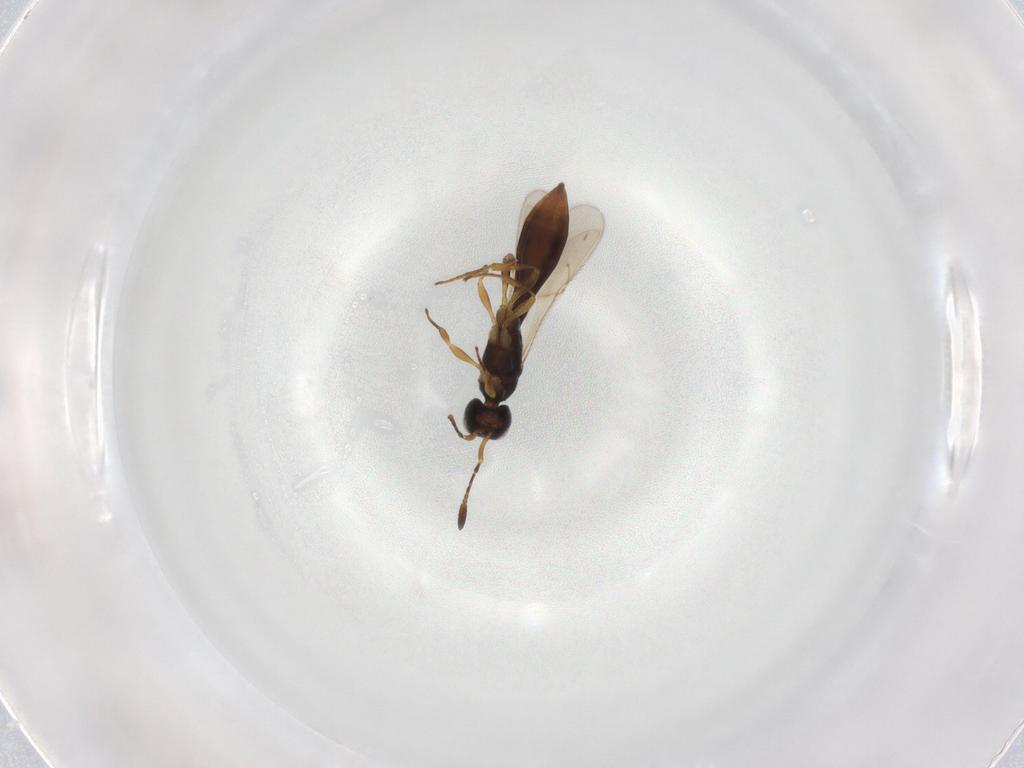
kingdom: Animalia
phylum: Arthropoda
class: Insecta
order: Hymenoptera
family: Scelionidae
